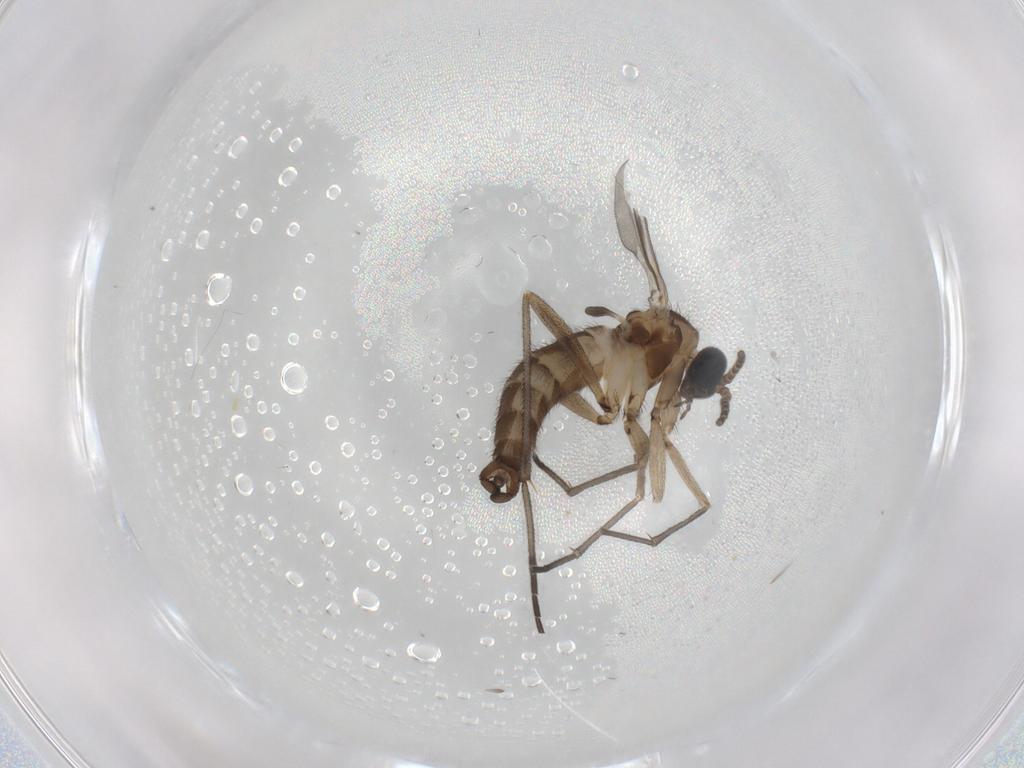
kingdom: Animalia
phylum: Arthropoda
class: Insecta
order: Diptera
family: Sciaridae
